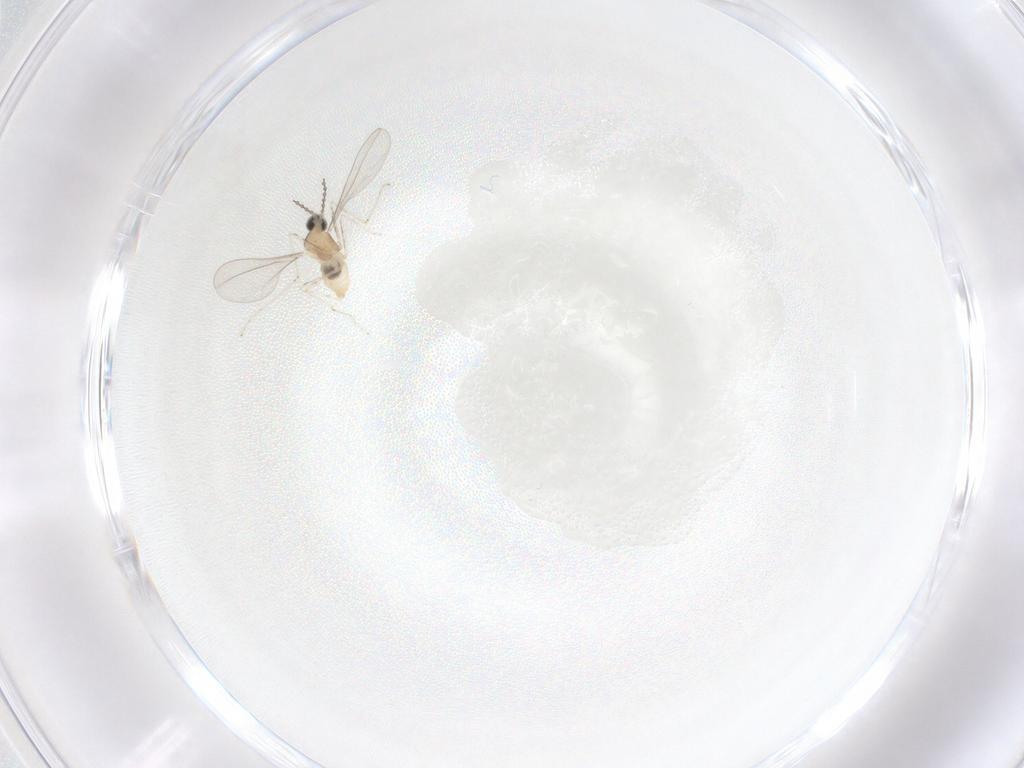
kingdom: Animalia
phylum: Arthropoda
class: Insecta
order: Diptera
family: Cecidomyiidae
